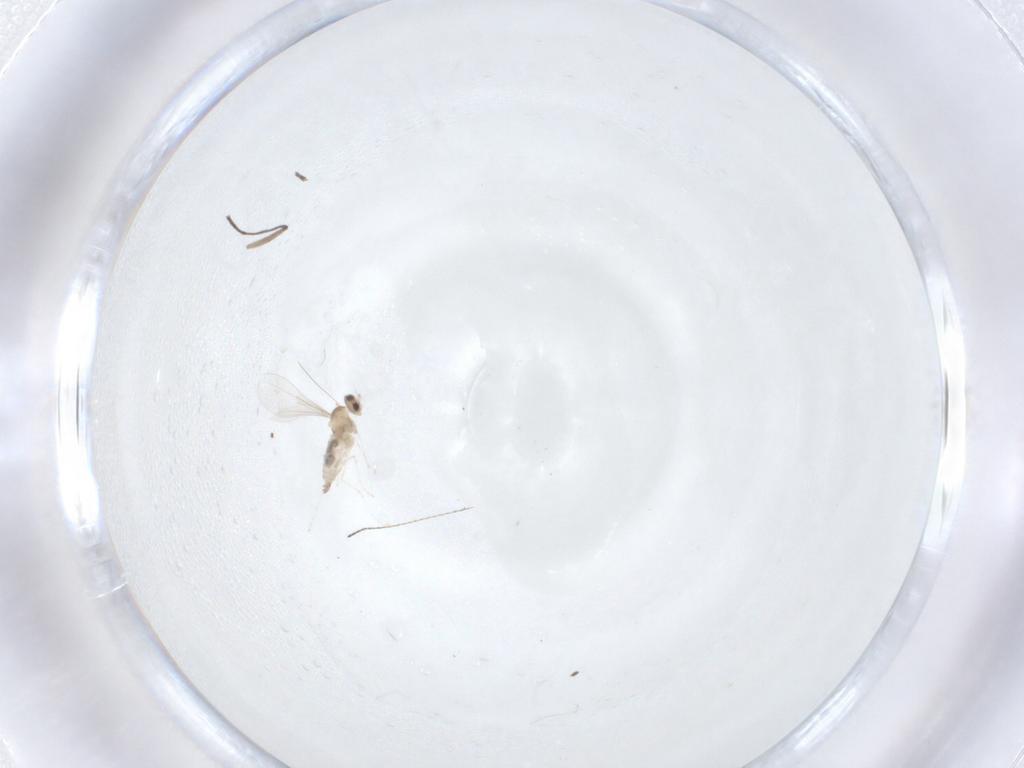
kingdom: Animalia
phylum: Arthropoda
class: Insecta
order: Diptera
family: Cecidomyiidae
